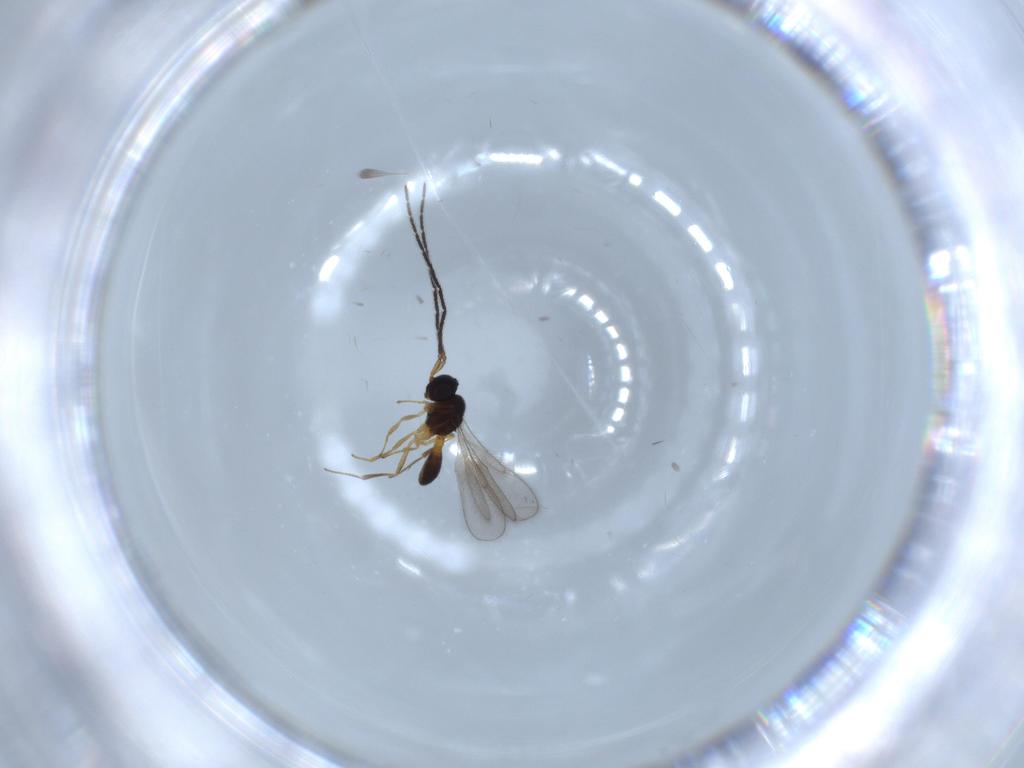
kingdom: Animalia
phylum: Arthropoda
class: Insecta
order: Hymenoptera
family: Scelionidae
